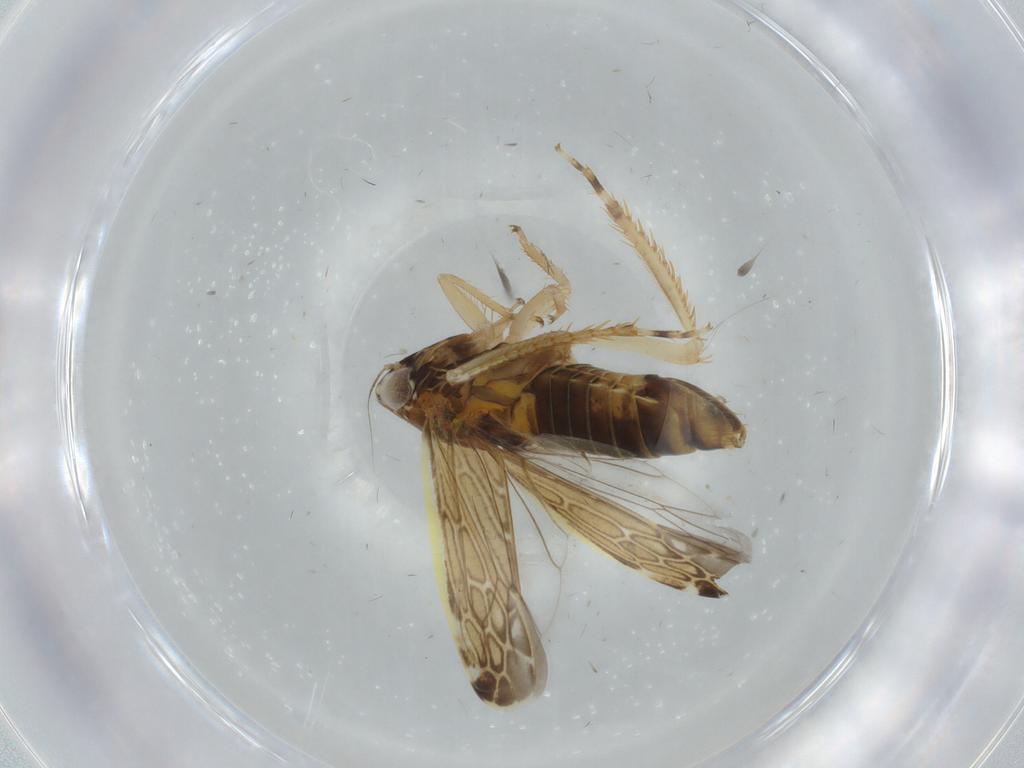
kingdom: Animalia
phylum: Arthropoda
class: Insecta
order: Hemiptera
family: Cicadellidae
